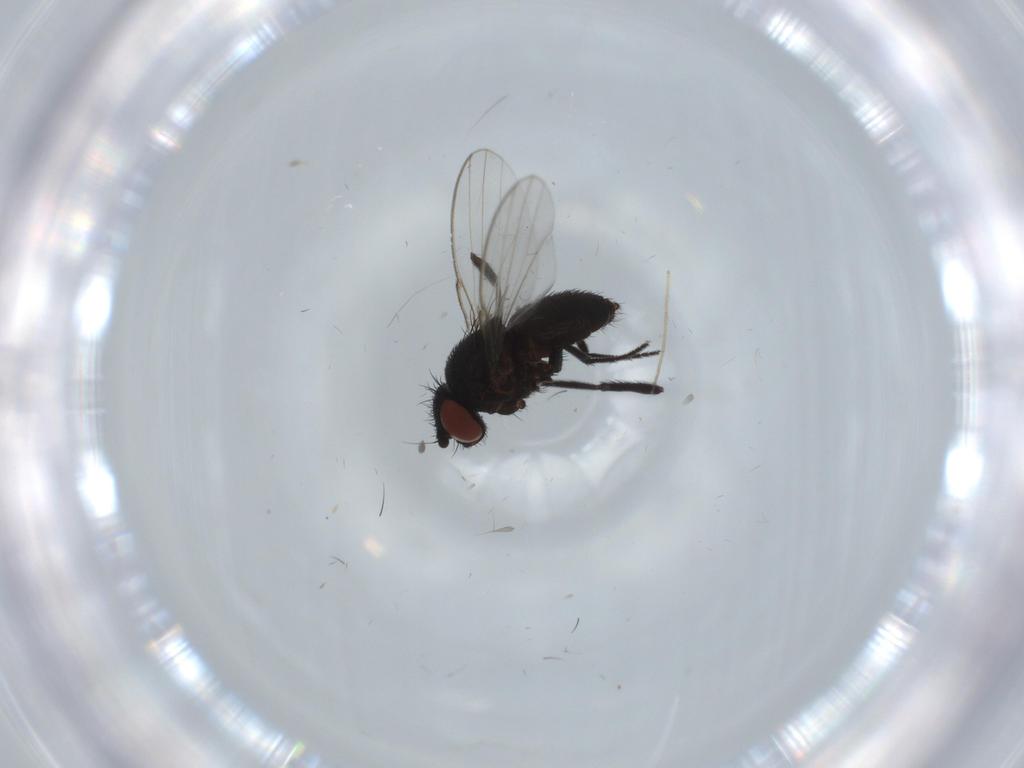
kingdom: Animalia
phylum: Arthropoda
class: Insecta
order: Diptera
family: Milichiidae
